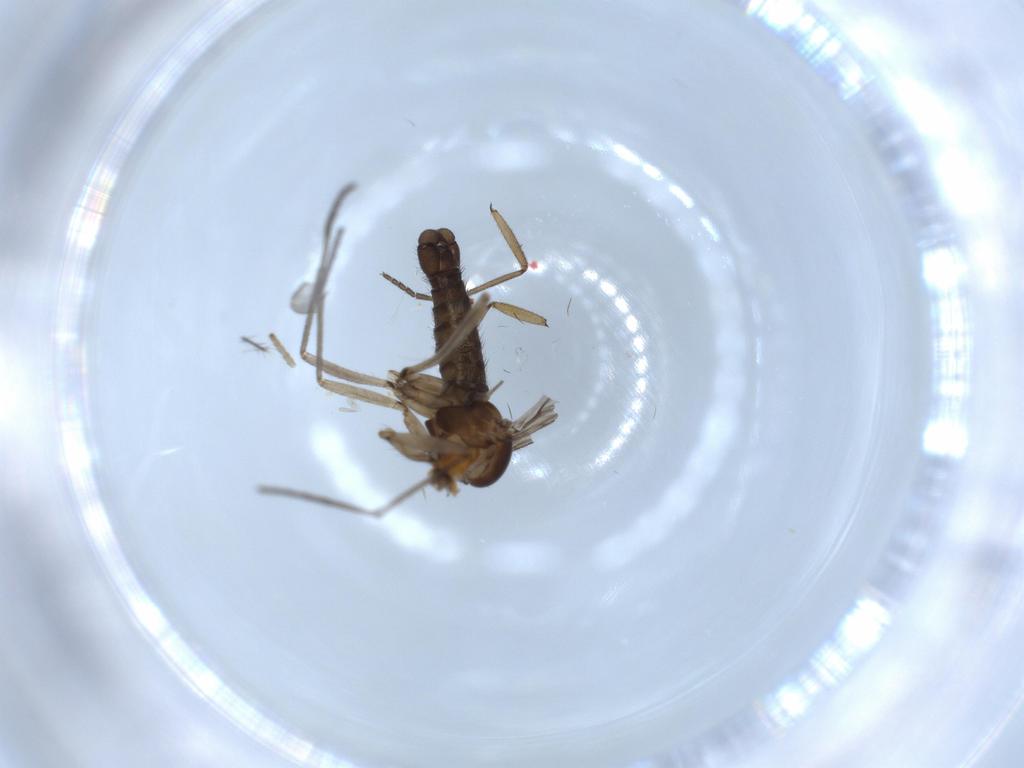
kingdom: Animalia
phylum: Arthropoda
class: Insecta
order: Diptera
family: Sciaridae
